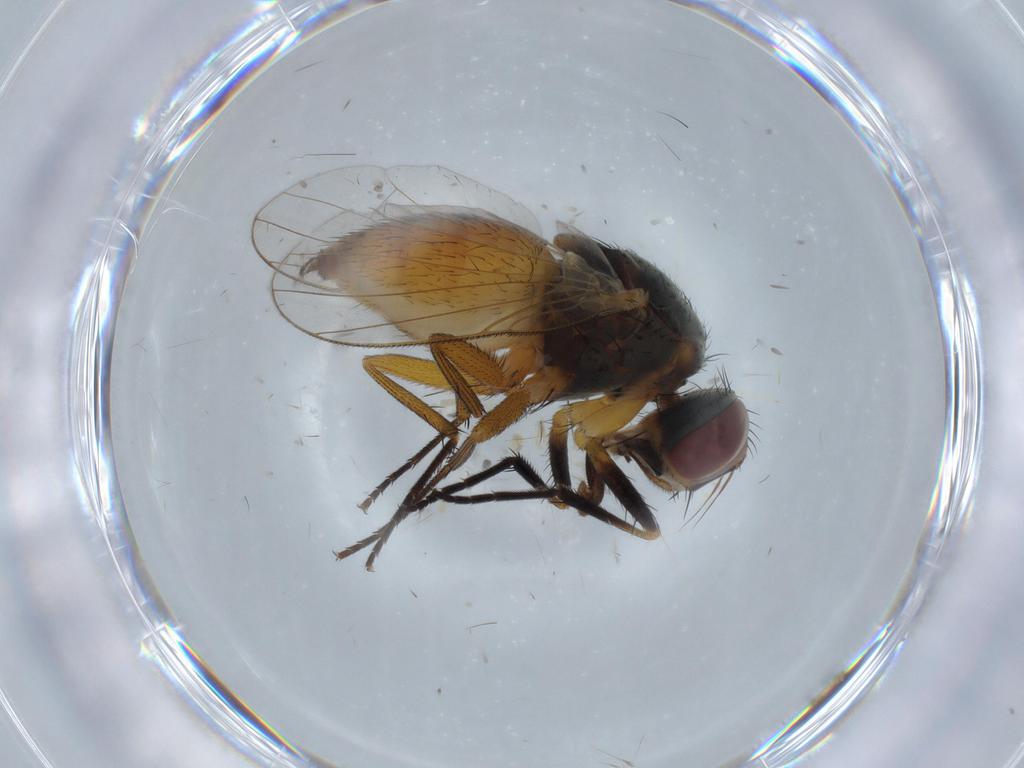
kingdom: Animalia
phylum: Arthropoda
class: Insecta
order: Diptera
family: Muscidae
